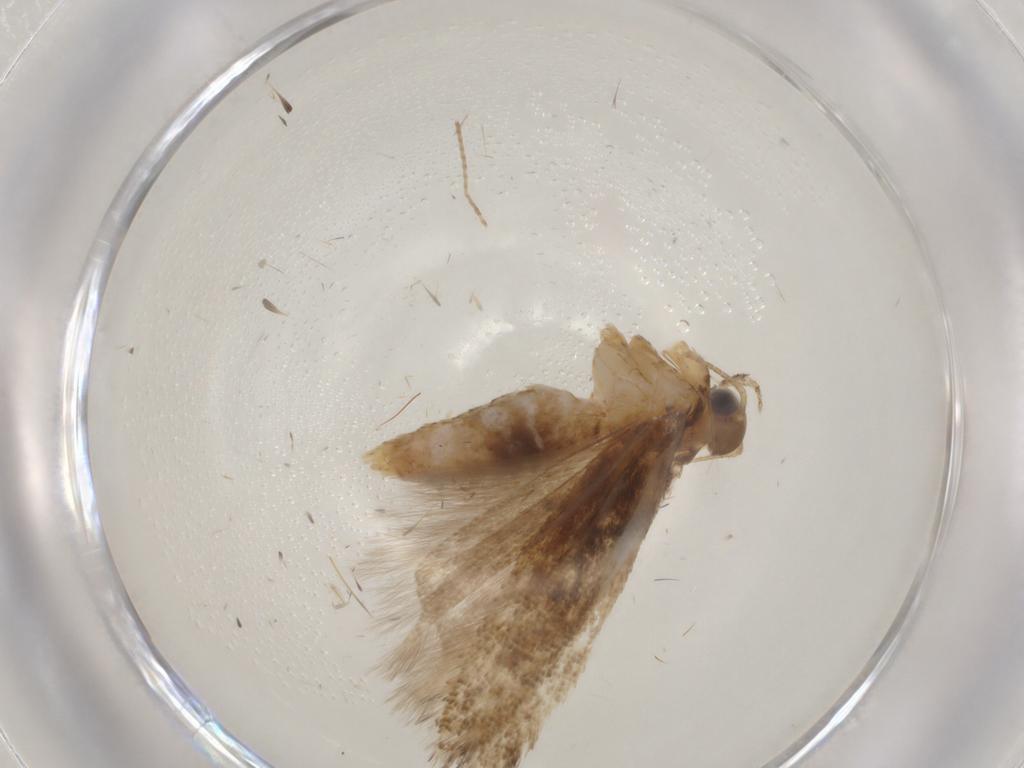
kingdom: Animalia
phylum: Arthropoda
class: Insecta
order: Lepidoptera
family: Gelechiidae
